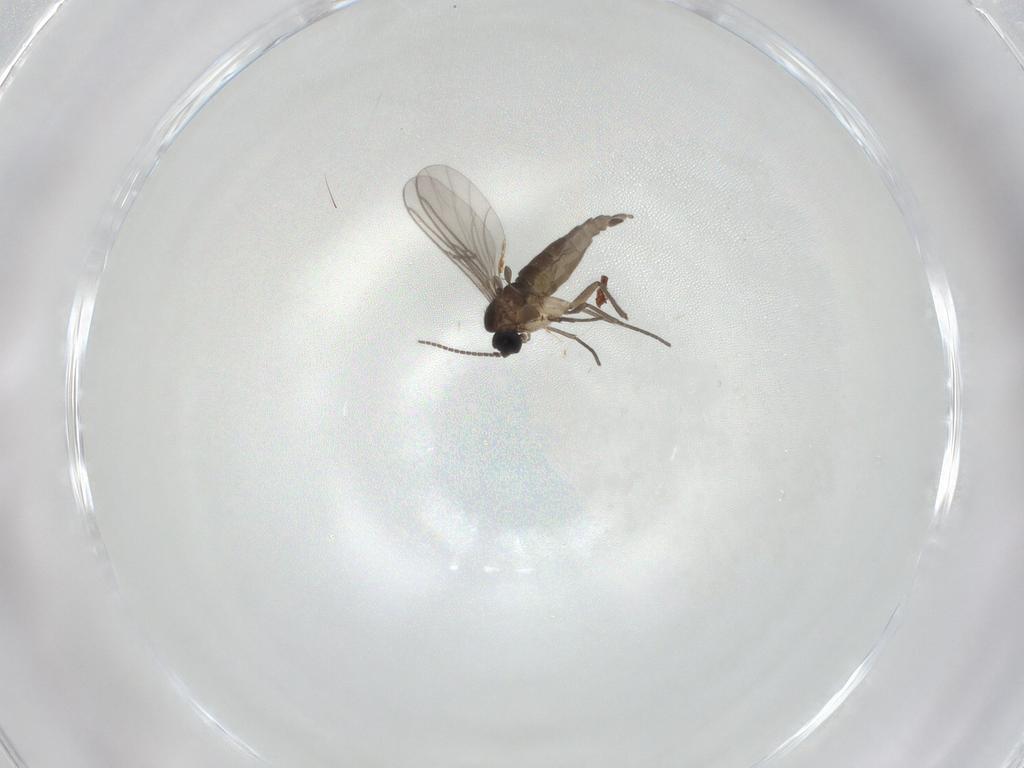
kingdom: Animalia
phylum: Arthropoda
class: Insecta
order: Diptera
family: Sciaridae
